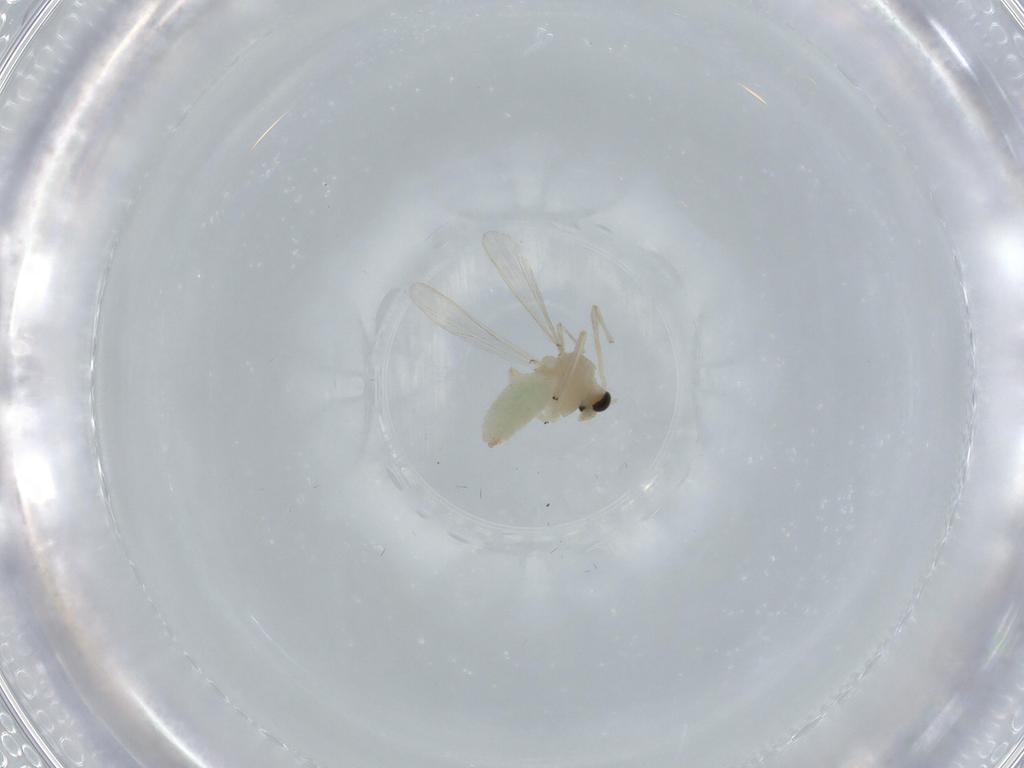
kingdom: Animalia
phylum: Arthropoda
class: Insecta
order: Diptera
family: Chironomidae
